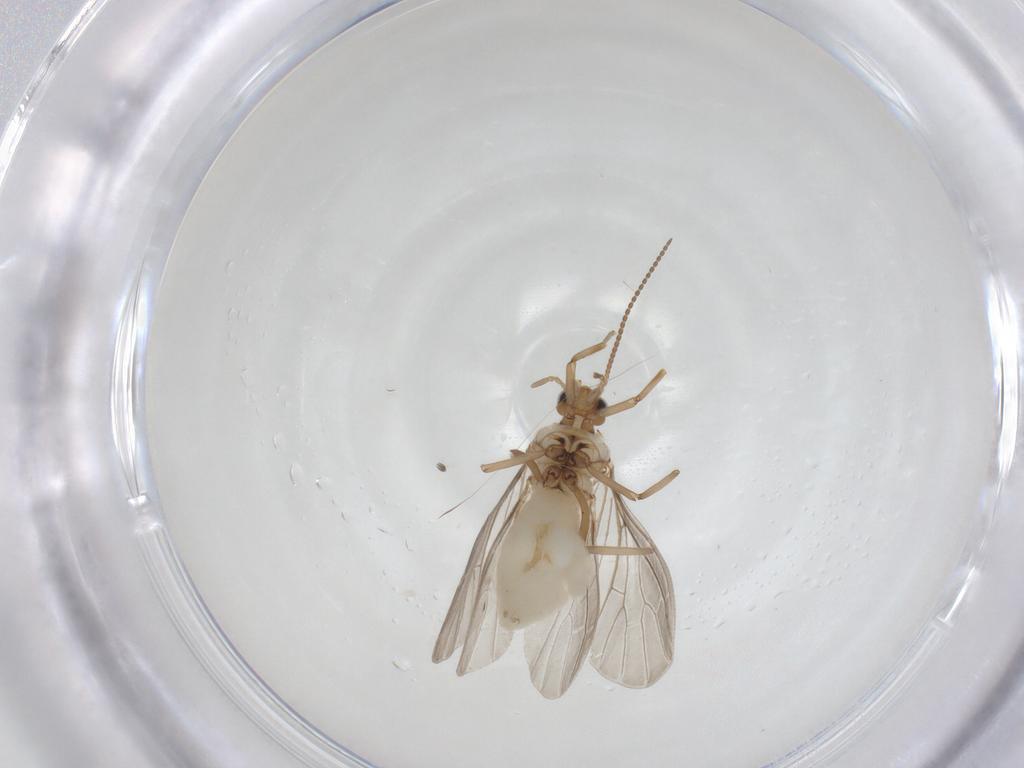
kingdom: Animalia
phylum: Arthropoda
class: Insecta
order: Neuroptera
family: Coniopterygidae
